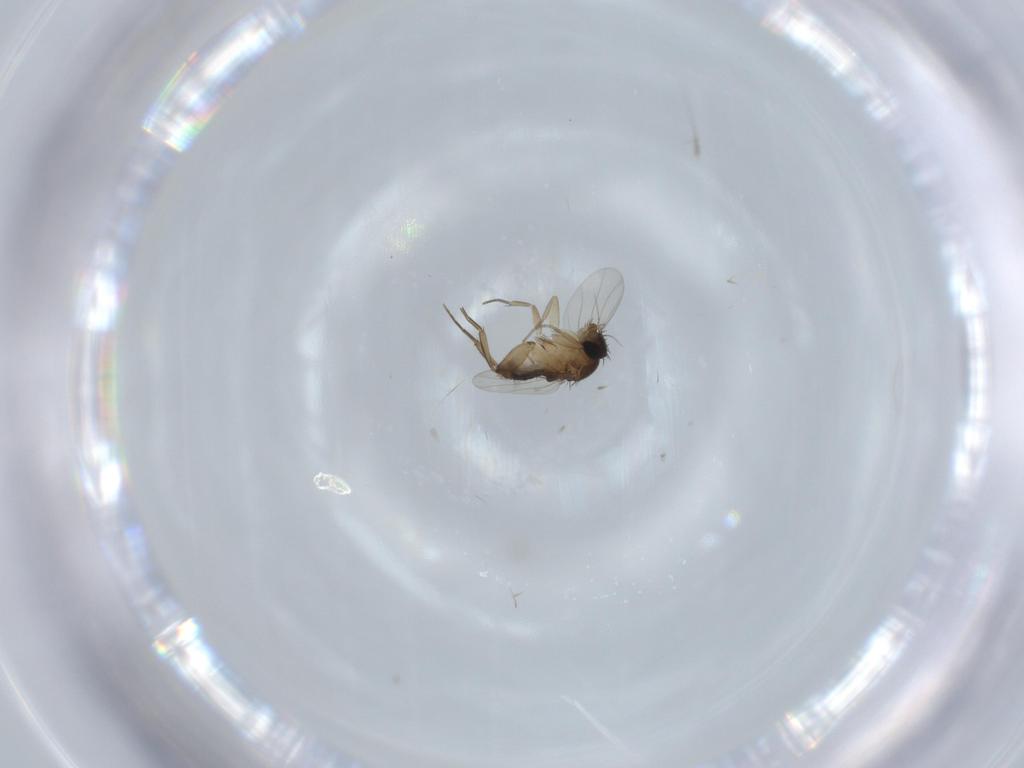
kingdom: Animalia
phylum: Arthropoda
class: Insecta
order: Diptera
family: Phoridae
